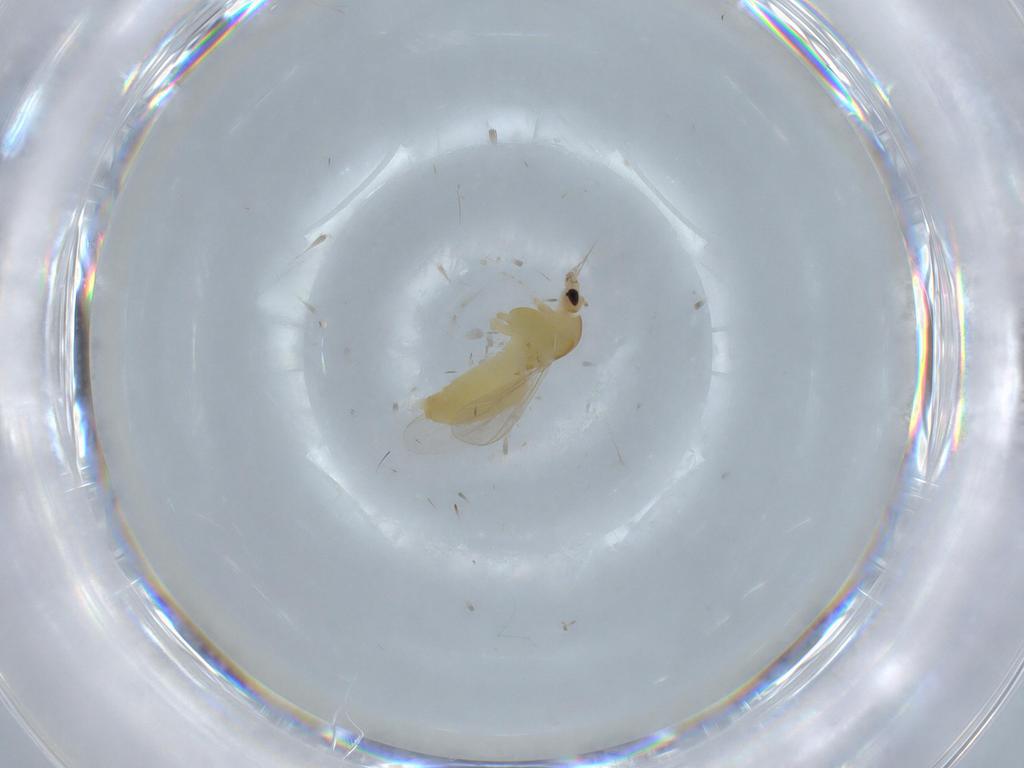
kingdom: Animalia
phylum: Arthropoda
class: Insecta
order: Diptera
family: Chironomidae
